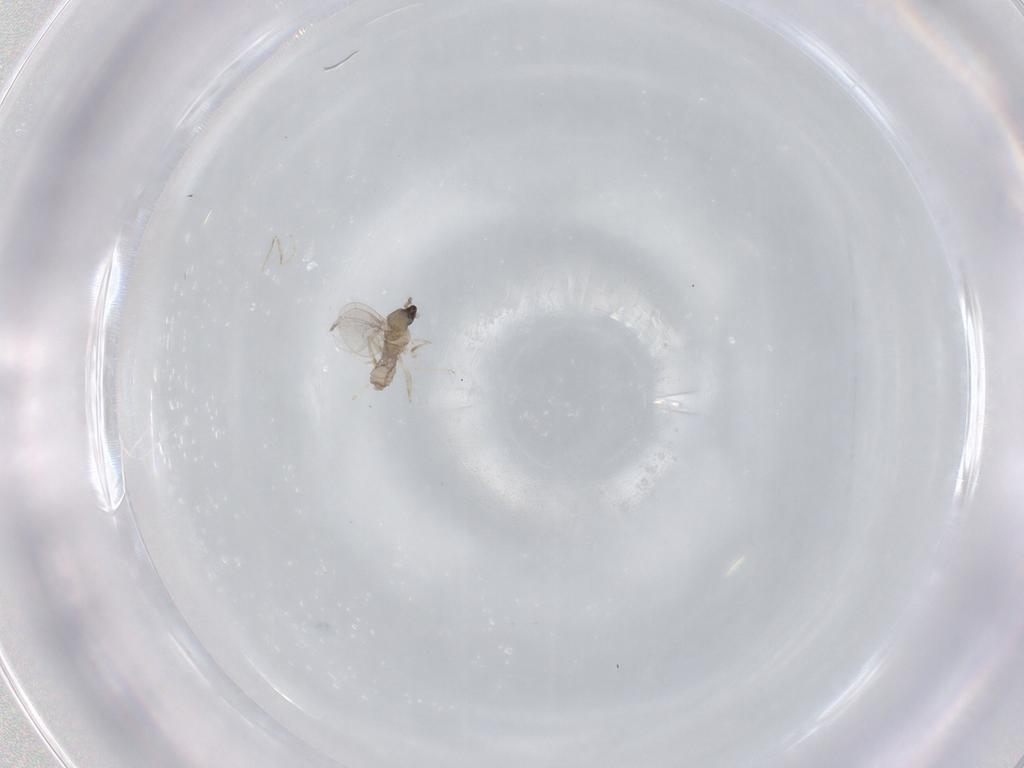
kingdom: Animalia
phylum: Arthropoda
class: Insecta
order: Diptera
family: Cecidomyiidae
